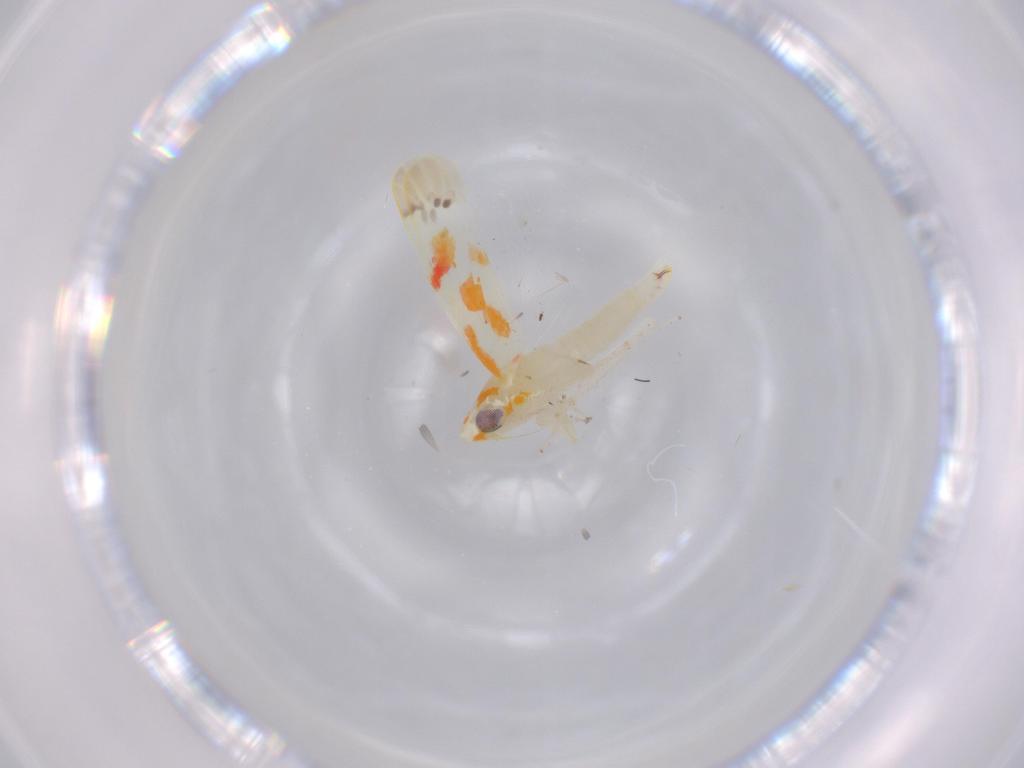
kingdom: Animalia
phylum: Arthropoda
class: Insecta
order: Hemiptera
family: Cicadellidae
